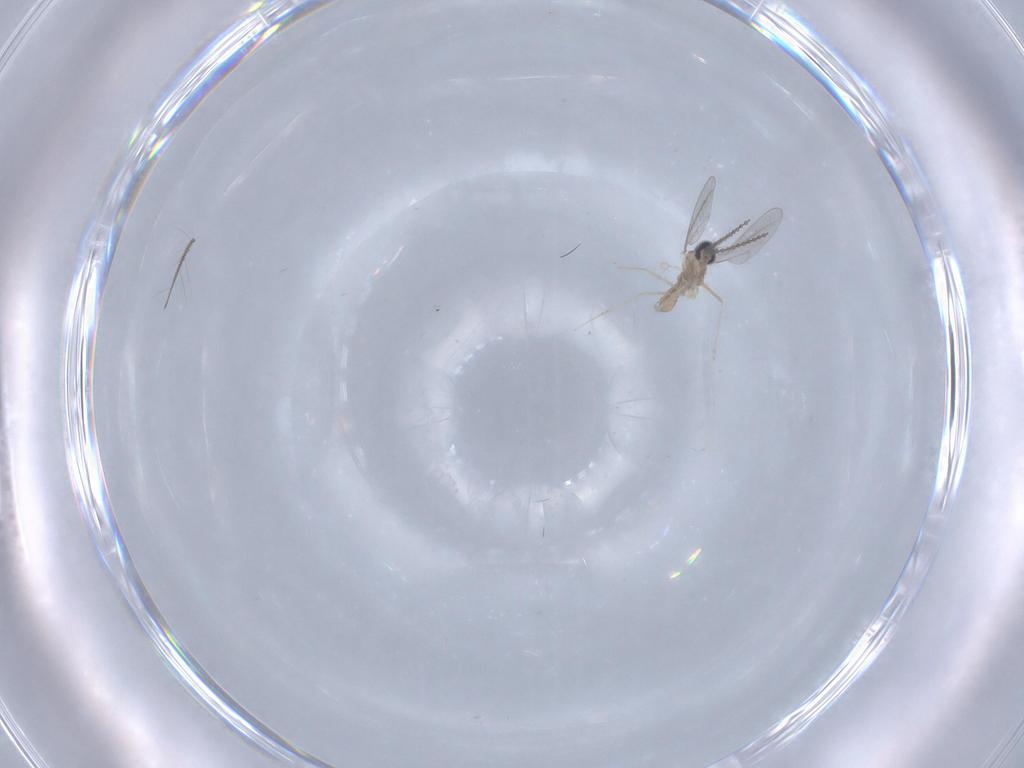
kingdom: Animalia
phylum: Arthropoda
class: Insecta
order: Diptera
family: Cecidomyiidae
